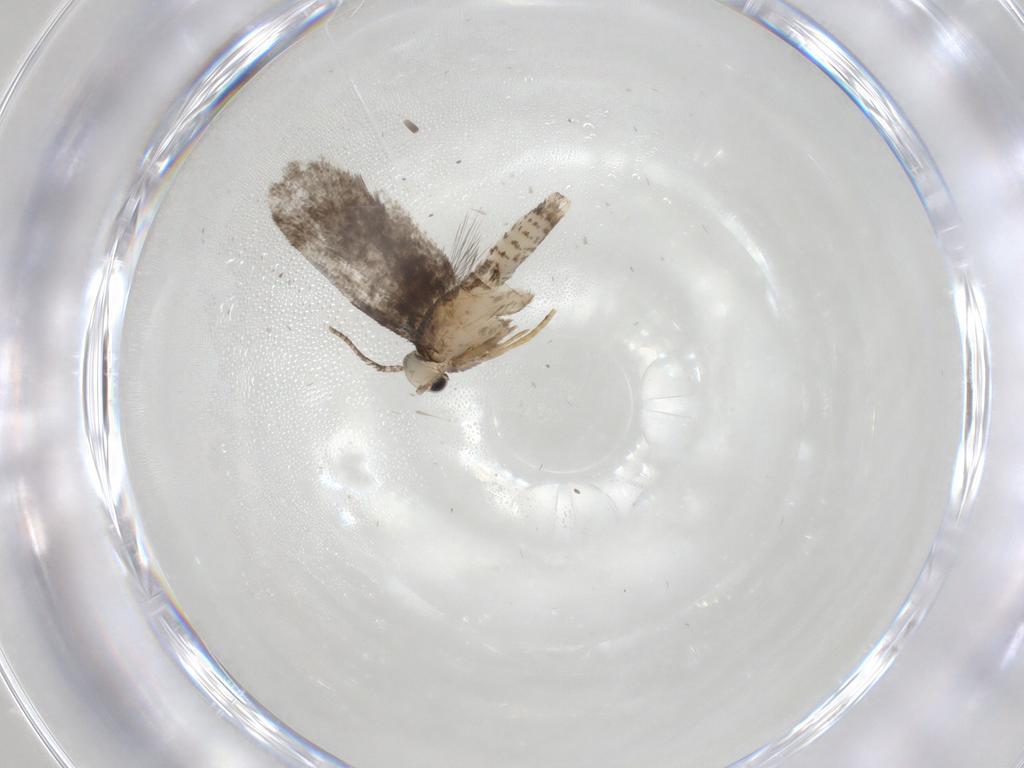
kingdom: Animalia
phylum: Arthropoda
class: Insecta
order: Lepidoptera
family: Psychidae
